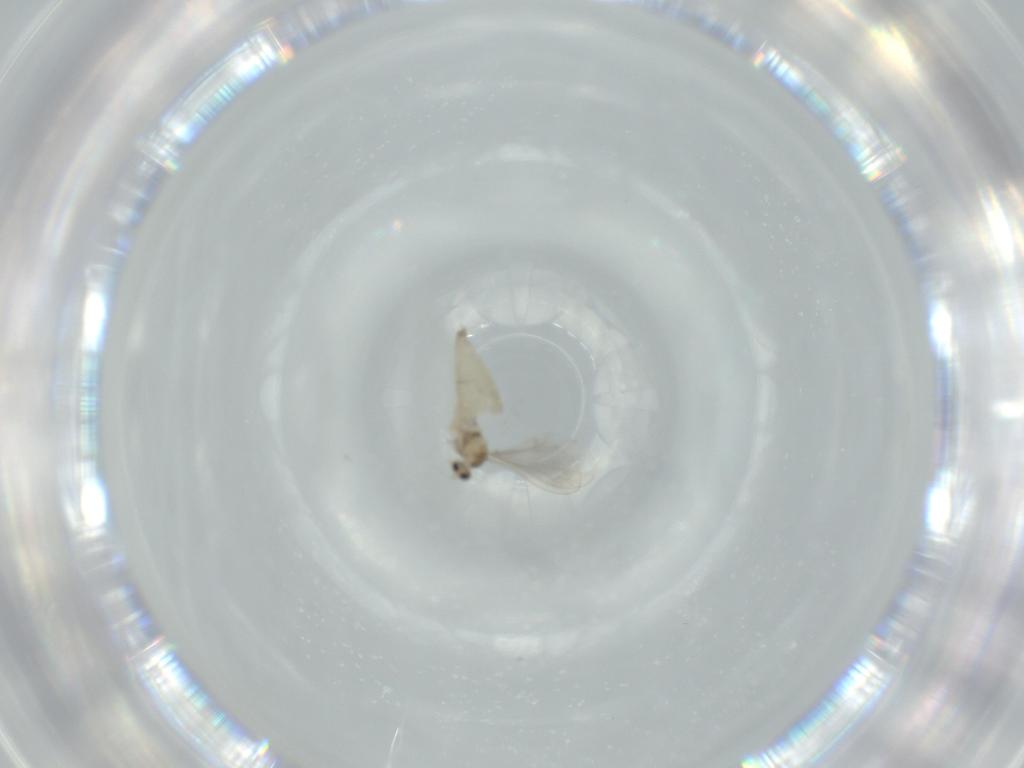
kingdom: Animalia
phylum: Arthropoda
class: Insecta
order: Diptera
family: Cecidomyiidae
